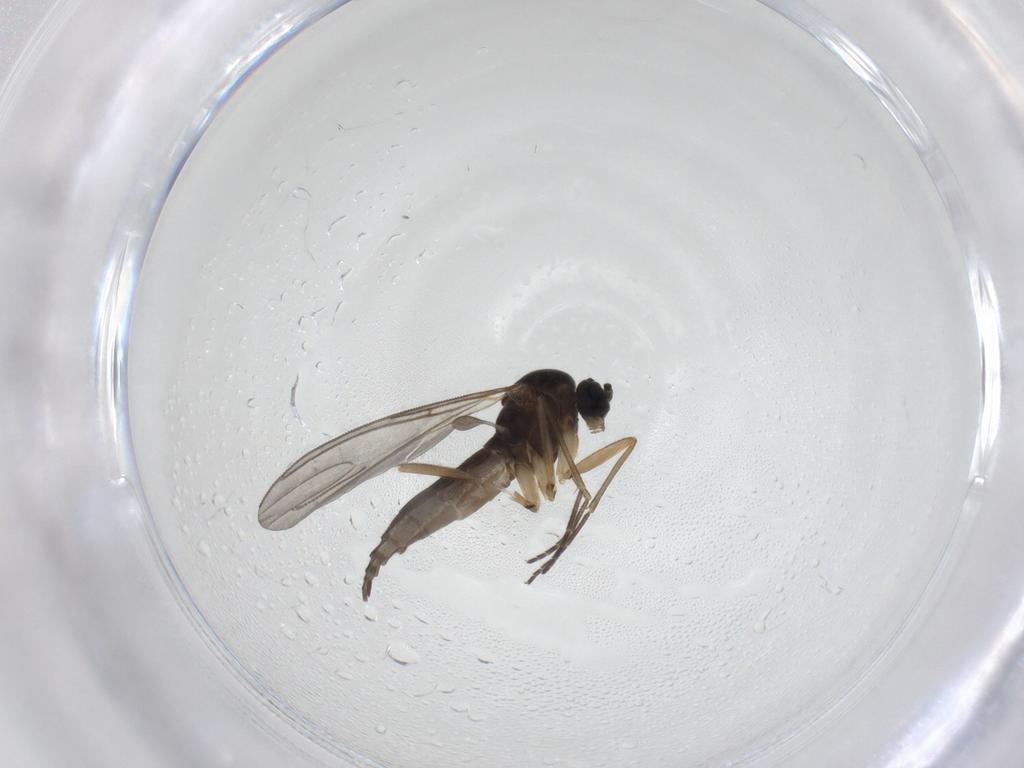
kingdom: Animalia
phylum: Arthropoda
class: Insecta
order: Diptera
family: Sciaridae
